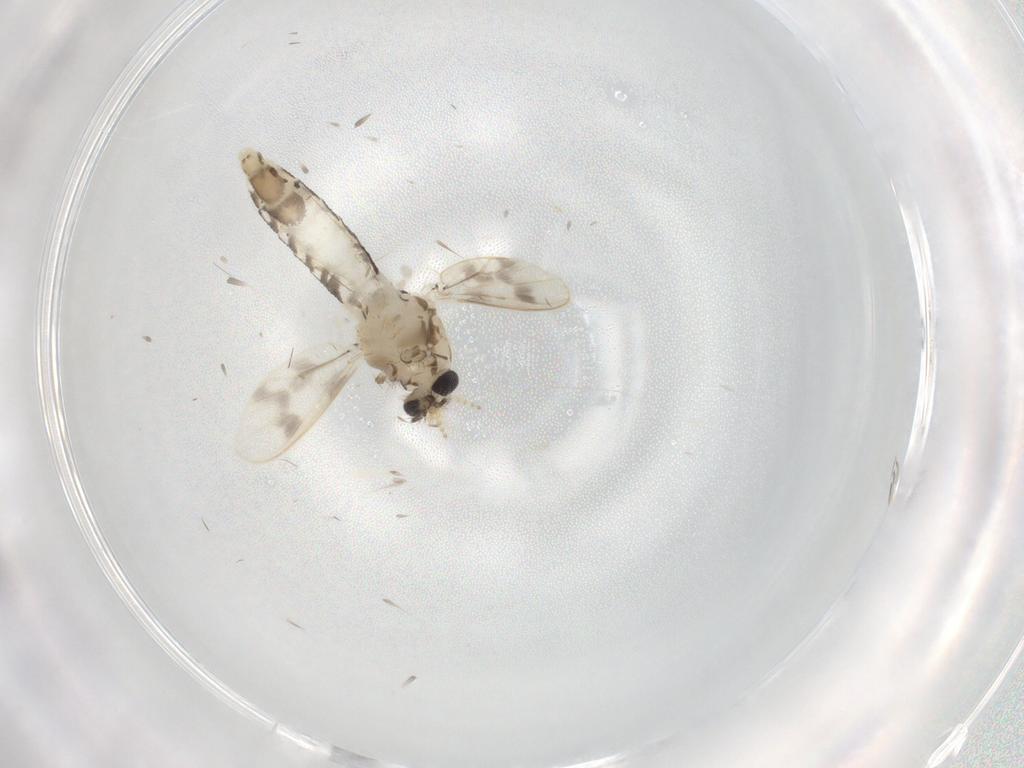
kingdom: Animalia
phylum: Arthropoda
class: Insecta
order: Diptera
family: Corethrellidae
